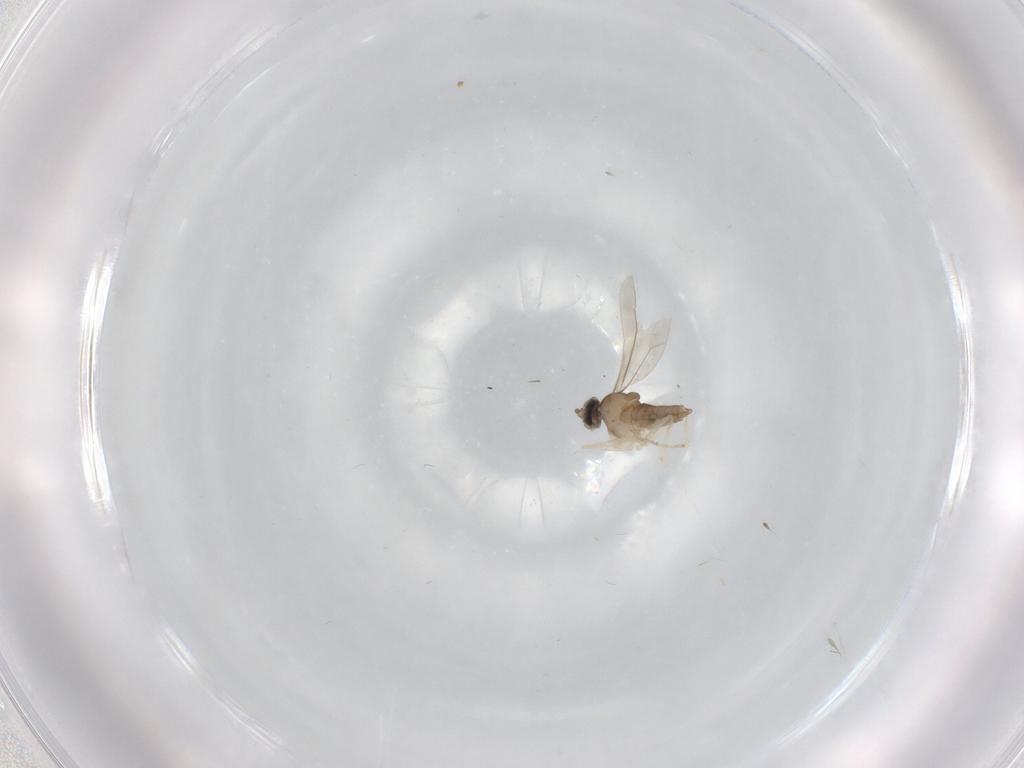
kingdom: Animalia
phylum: Arthropoda
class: Insecta
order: Diptera
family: Cecidomyiidae
